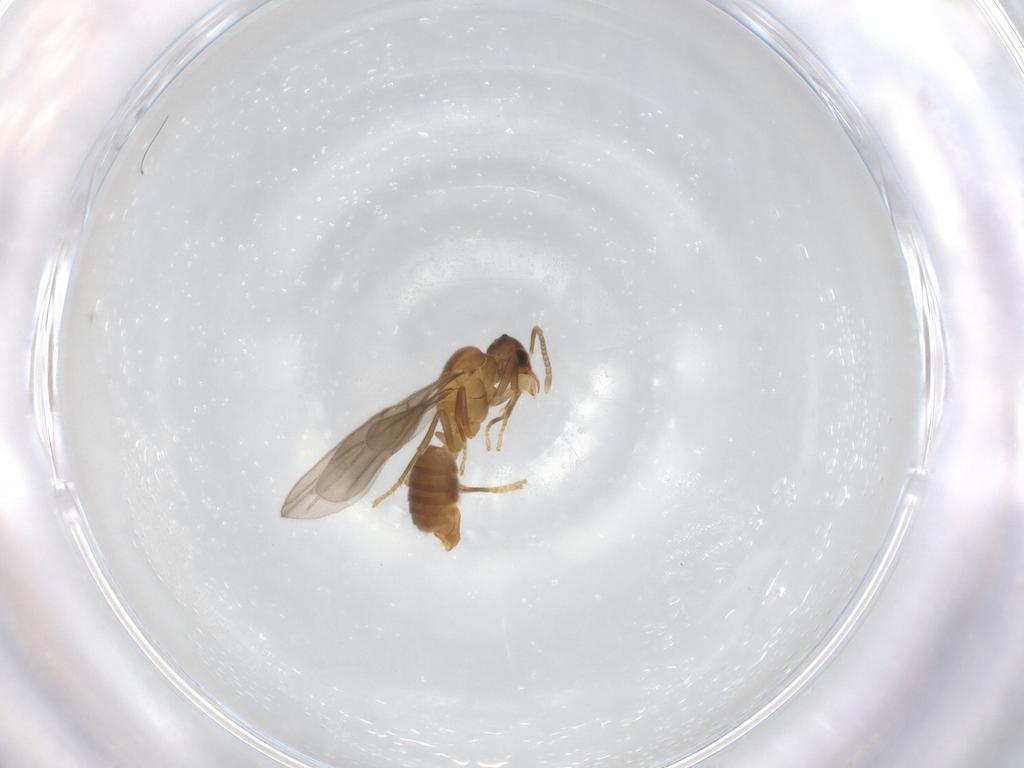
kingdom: Animalia
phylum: Arthropoda
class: Insecta
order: Hymenoptera
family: Formicidae
